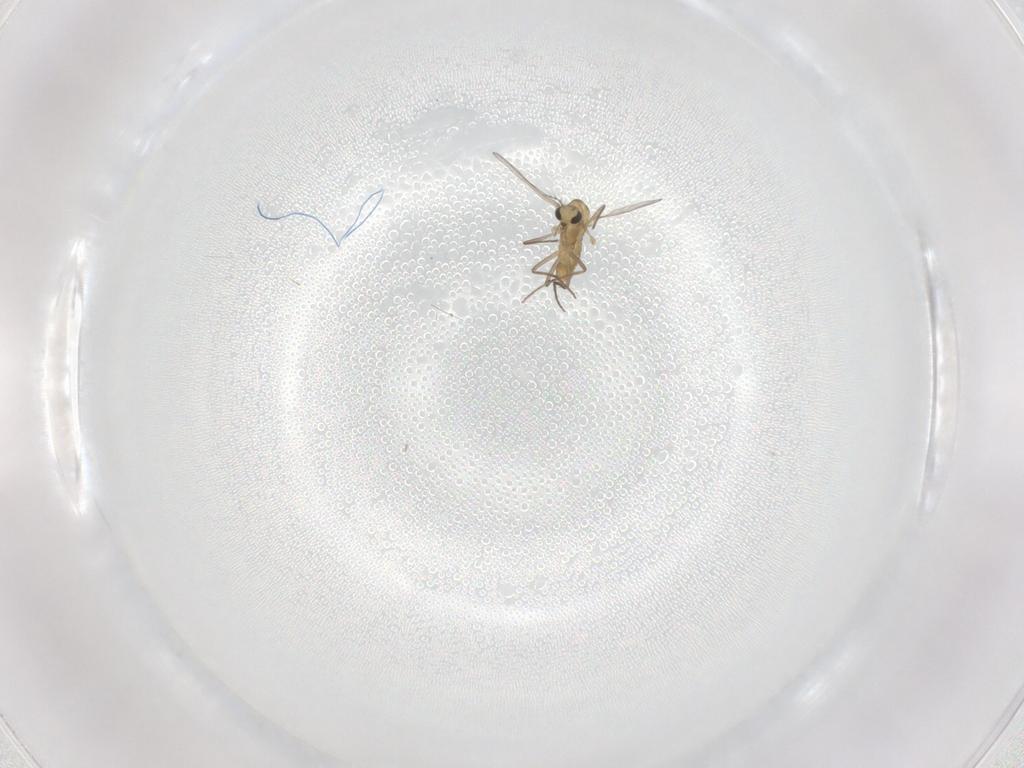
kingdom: Animalia
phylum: Arthropoda
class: Insecta
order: Diptera
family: Chironomidae
